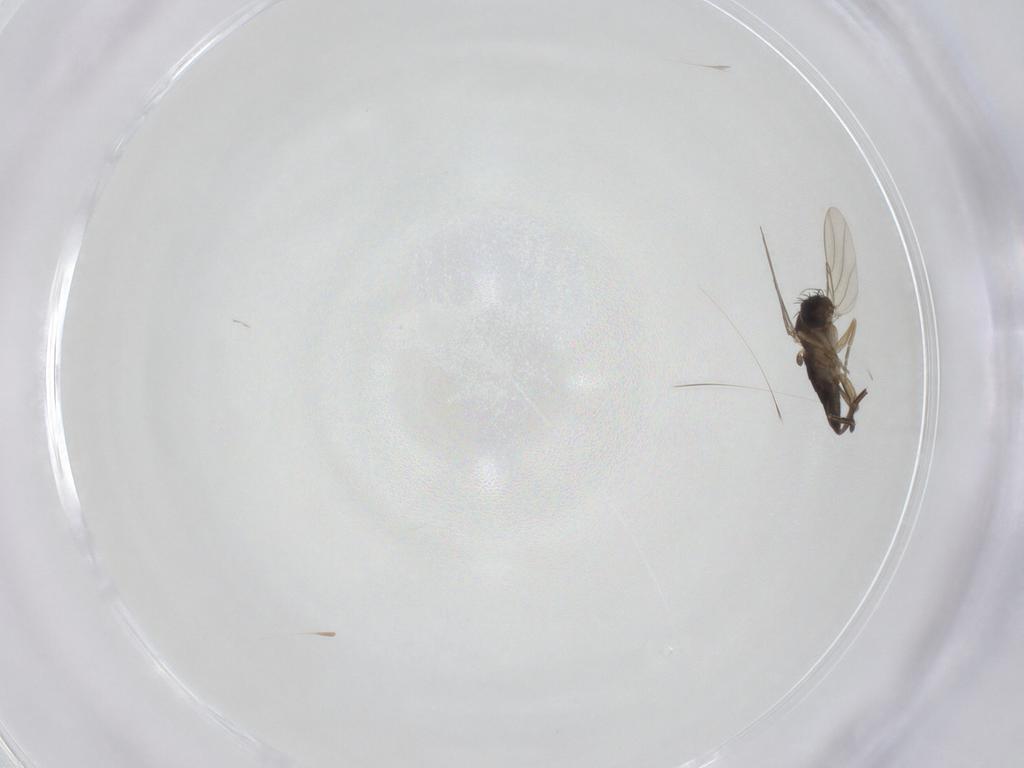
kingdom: Animalia
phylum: Arthropoda
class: Insecta
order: Diptera
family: Phoridae
